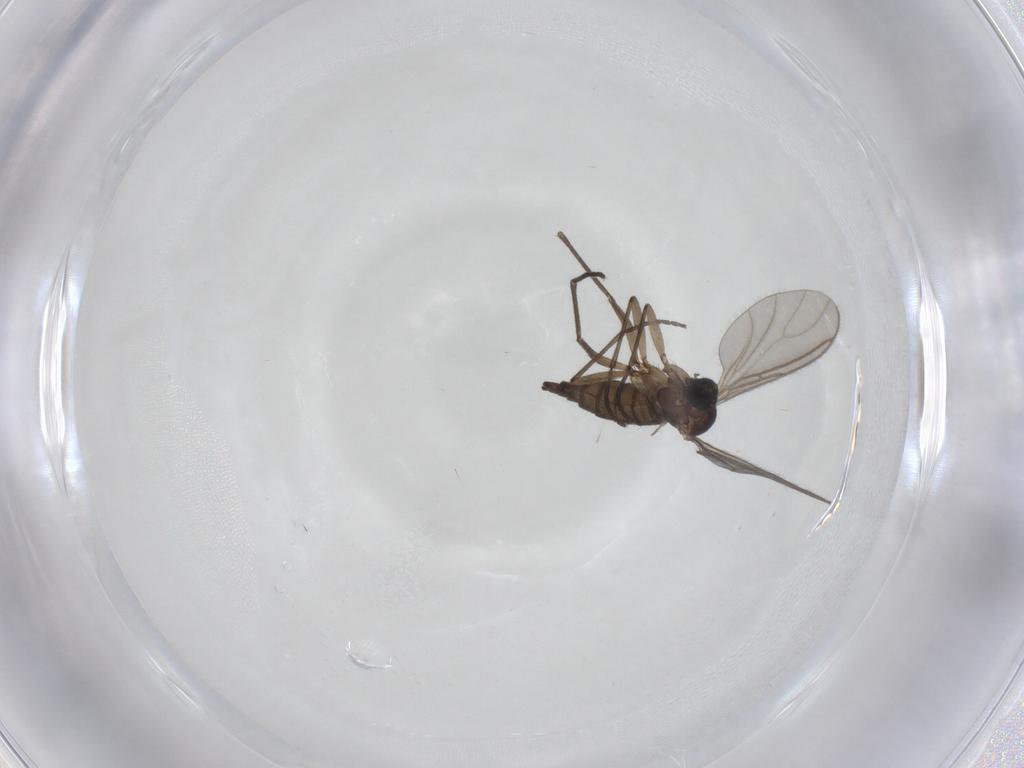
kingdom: Animalia
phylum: Arthropoda
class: Insecta
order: Diptera
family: Sciaridae
